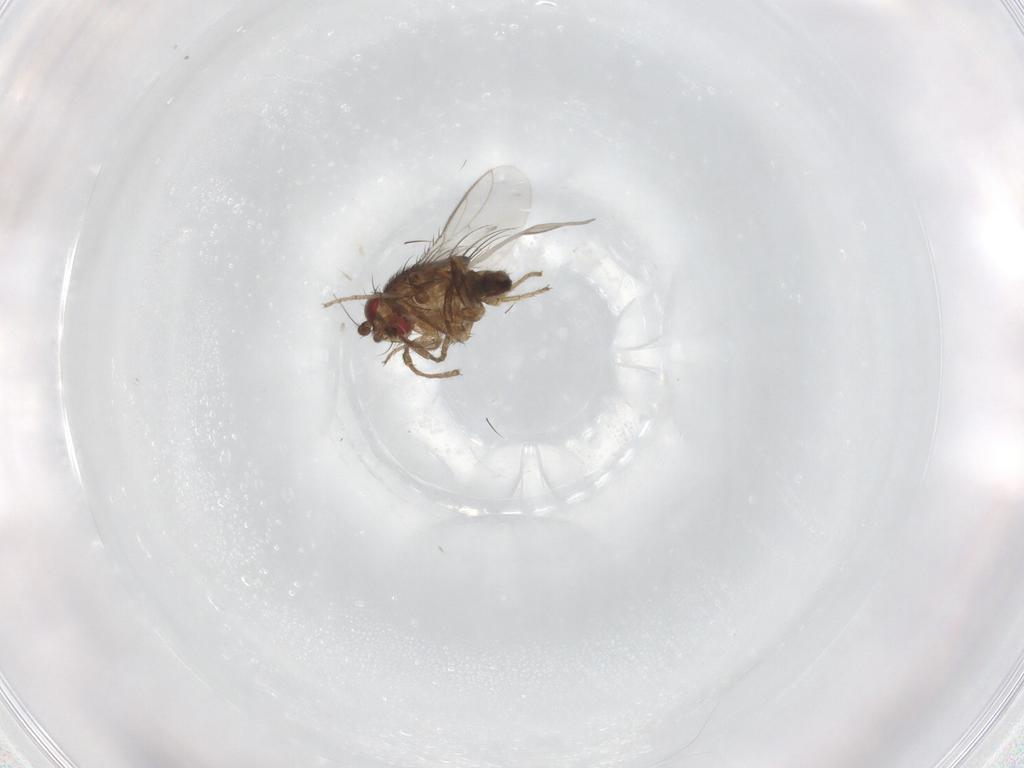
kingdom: Animalia
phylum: Arthropoda
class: Insecta
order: Diptera
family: Sphaeroceridae
